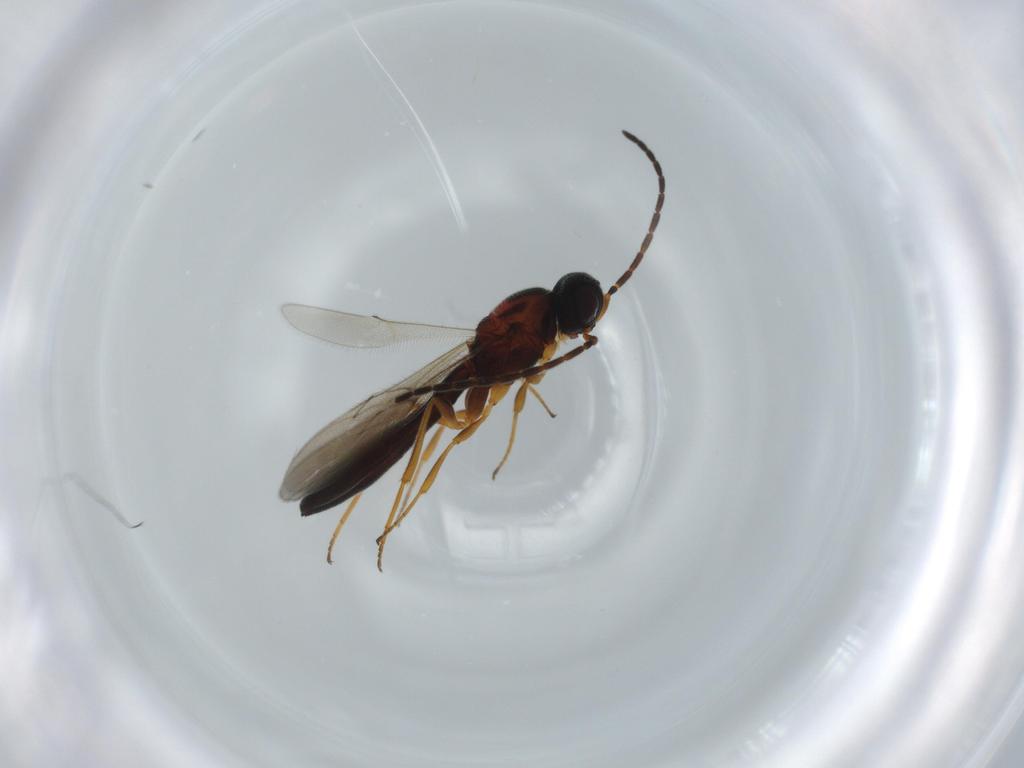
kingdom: Animalia
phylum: Arthropoda
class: Insecta
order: Hymenoptera
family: Scelionidae
